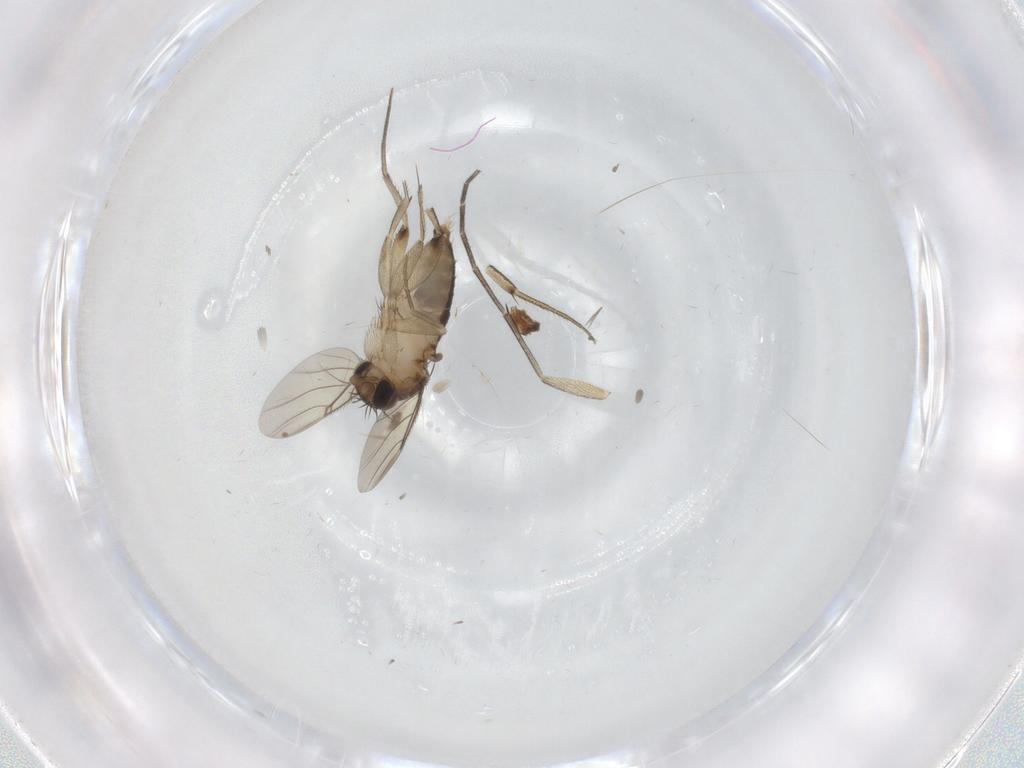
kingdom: Animalia
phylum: Arthropoda
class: Insecta
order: Diptera
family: Phoridae
